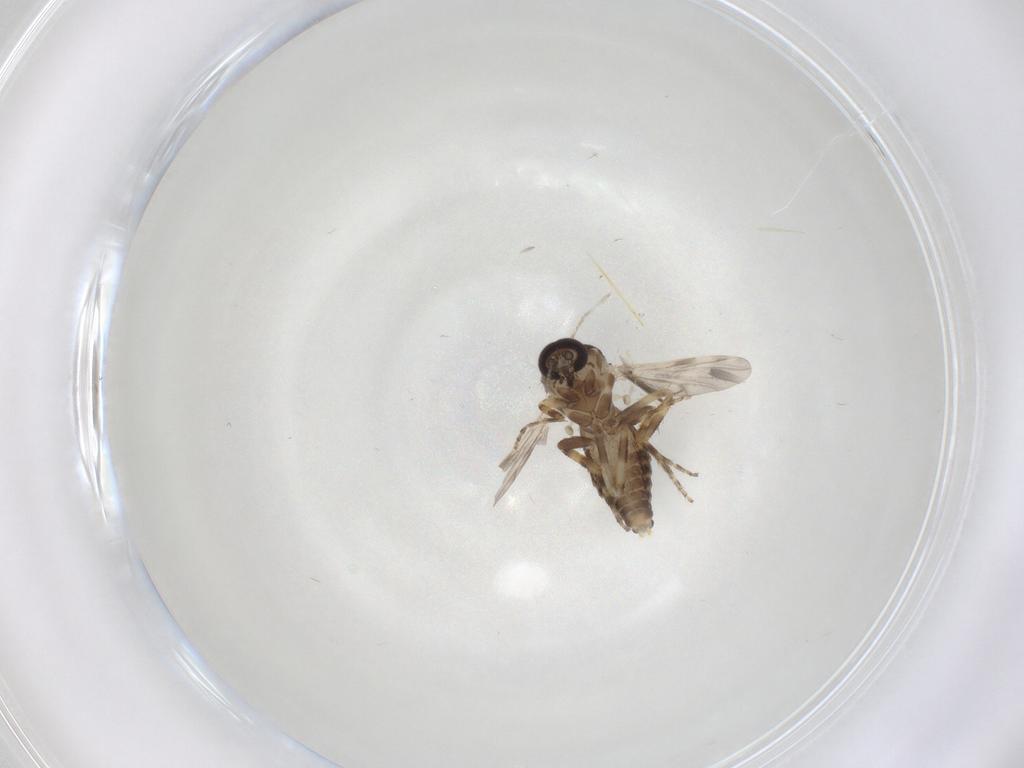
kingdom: Animalia
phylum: Arthropoda
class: Insecta
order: Diptera
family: Ceratopogonidae
